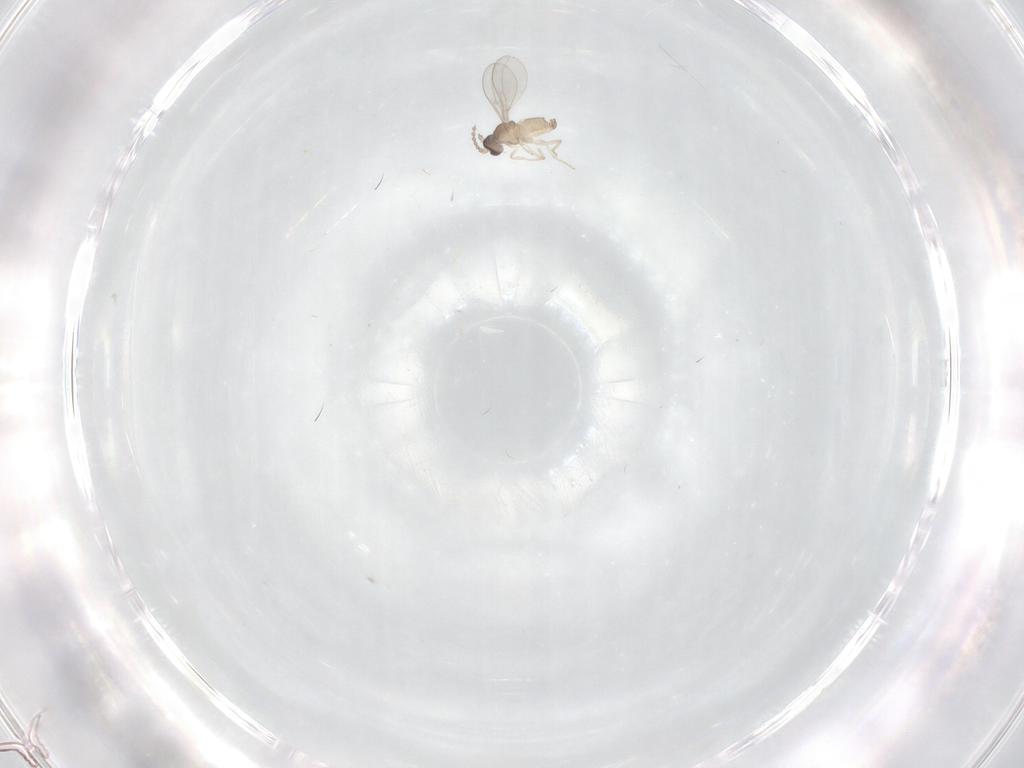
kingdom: Animalia
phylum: Arthropoda
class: Insecta
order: Diptera
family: Cecidomyiidae
